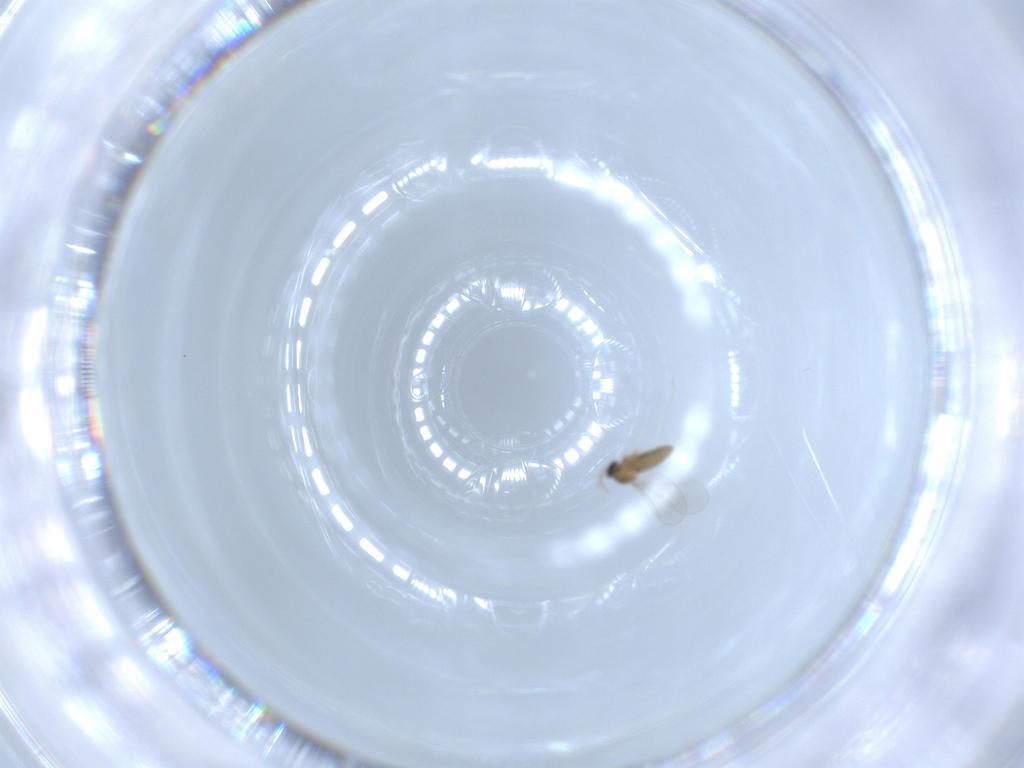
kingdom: Animalia
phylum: Arthropoda
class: Insecta
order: Diptera
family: Cecidomyiidae
